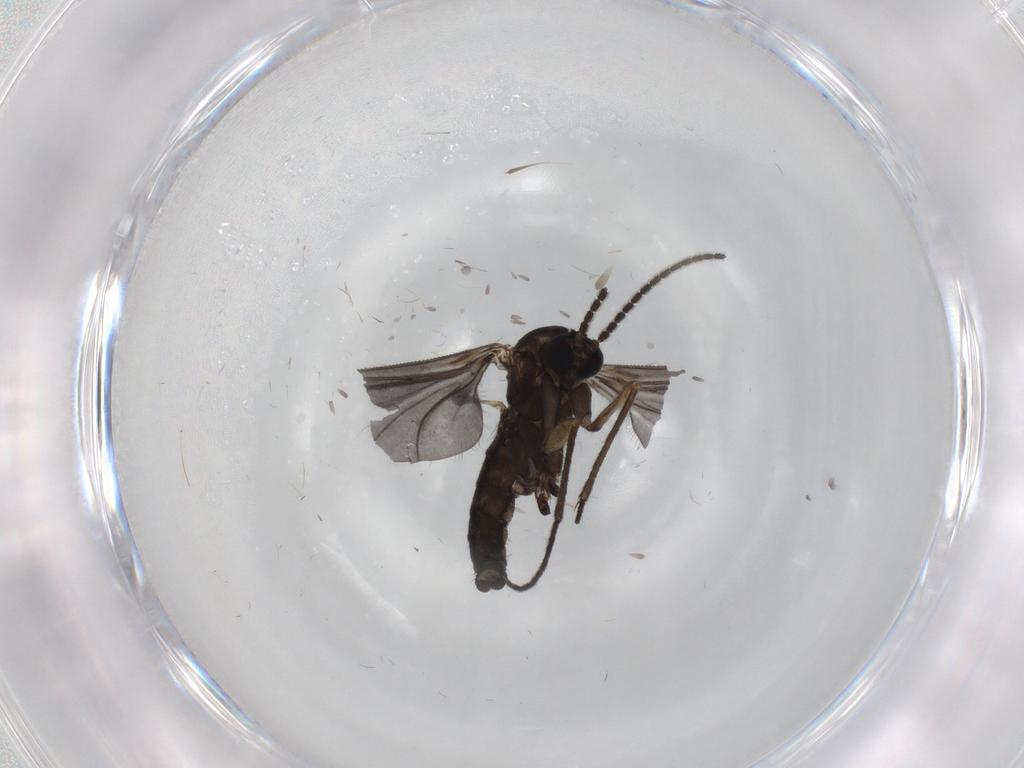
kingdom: Animalia
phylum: Arthropoda
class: Insecta
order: Diptera
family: Sciaridae
